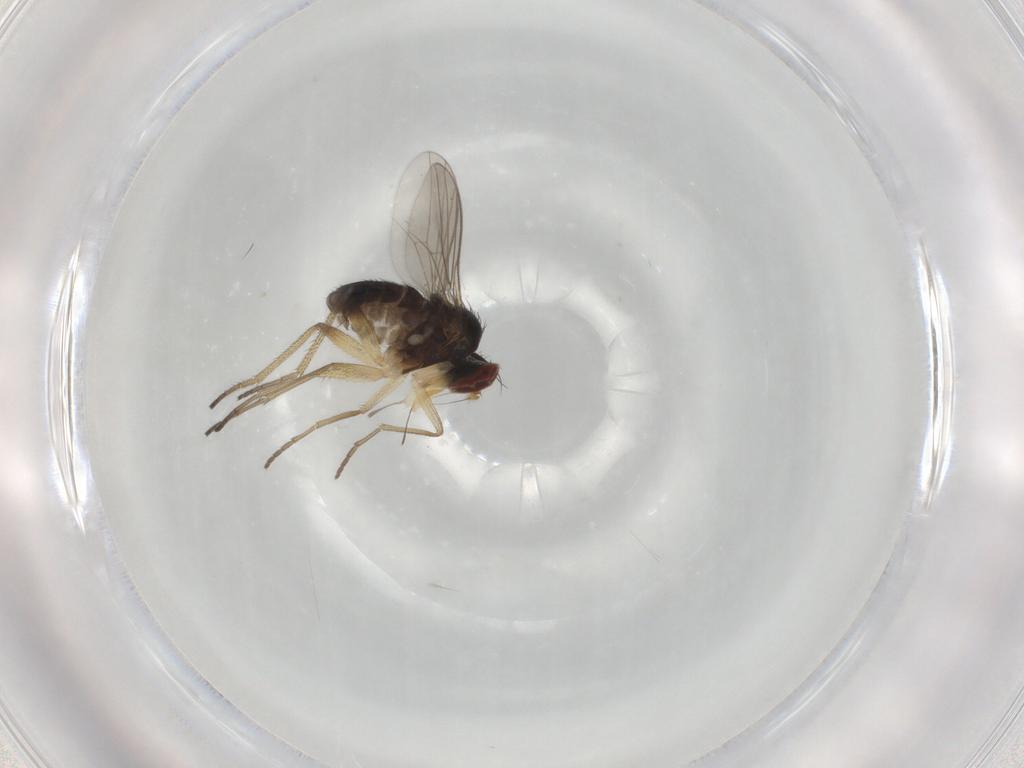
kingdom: Animalia
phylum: Arthropoda
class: Insecta
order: Diptera
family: Dolichopodidae
